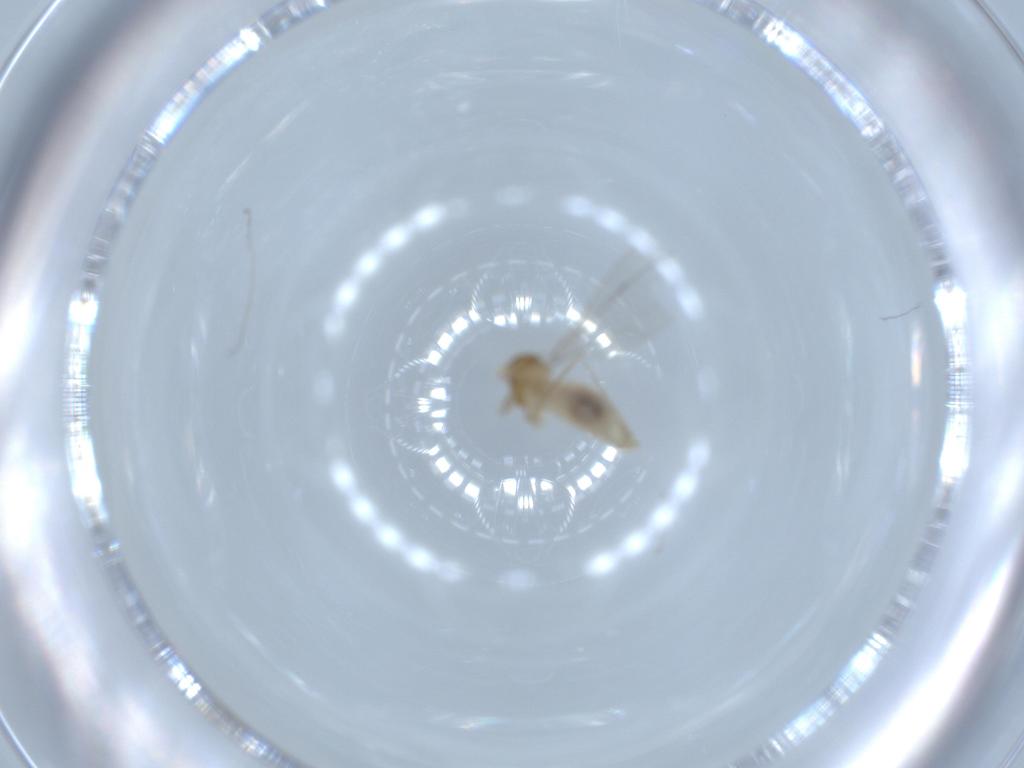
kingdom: Animalia
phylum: Arthropoda
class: Insecta
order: Diptera
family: Cecidomyiidae
